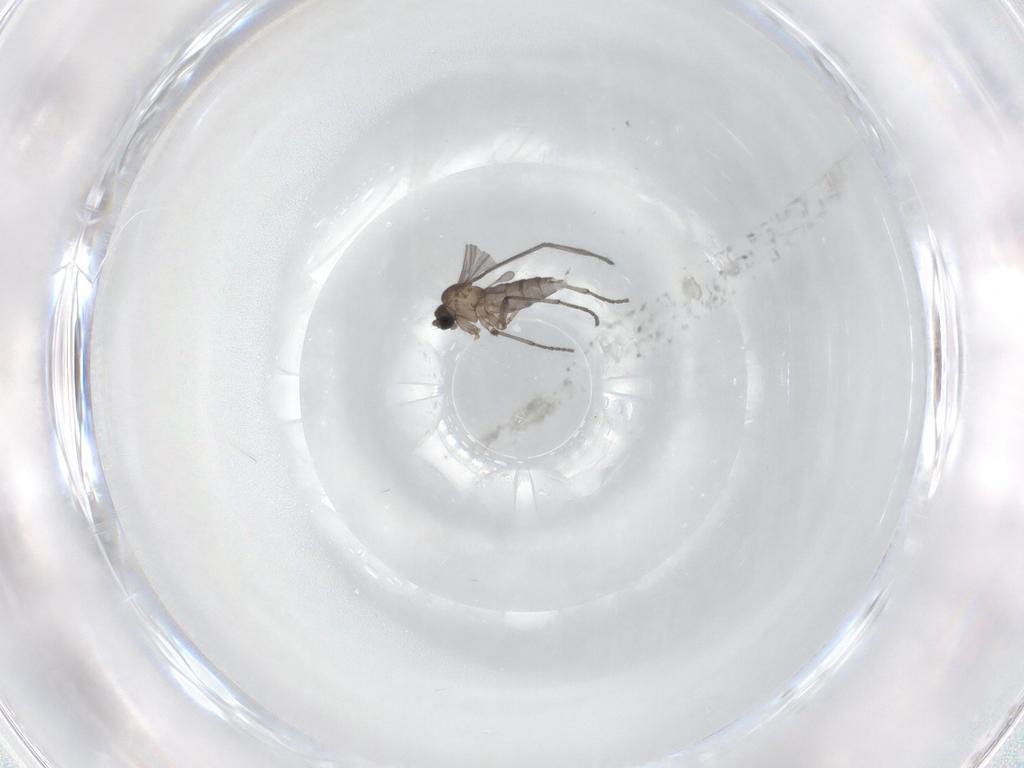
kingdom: Animalia
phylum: Arthropoda
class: Insecta
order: Diptera
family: Sciaridae
